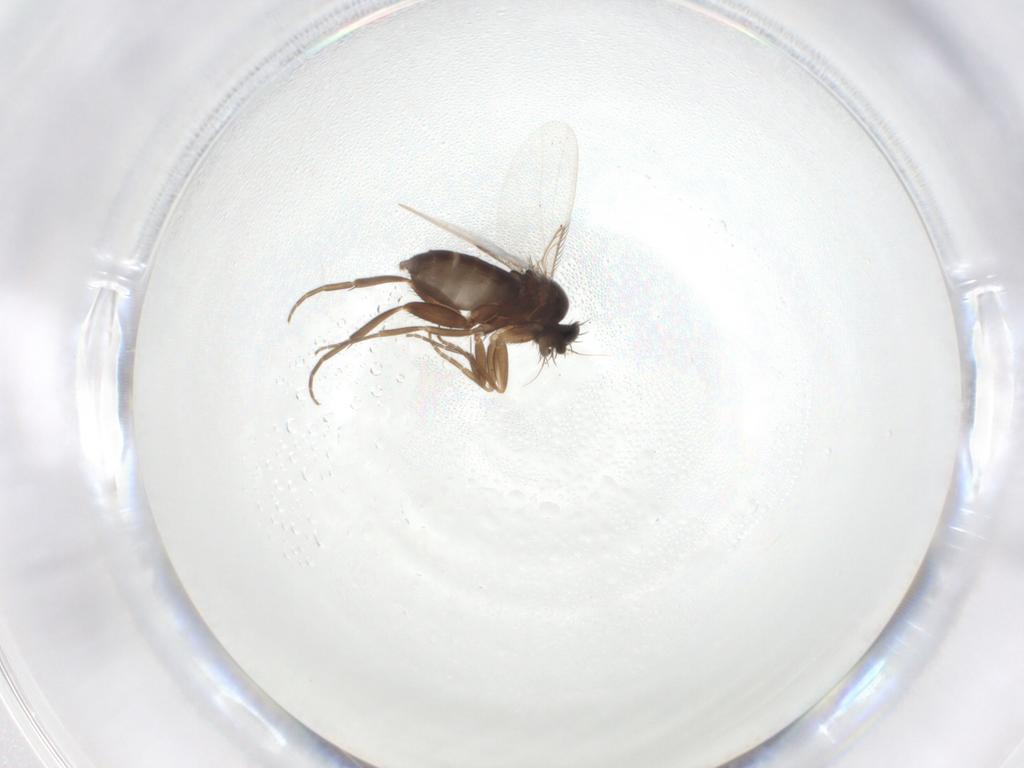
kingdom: Animalia
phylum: Arthropoda
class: Insecta
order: Diptera
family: Phoridae
